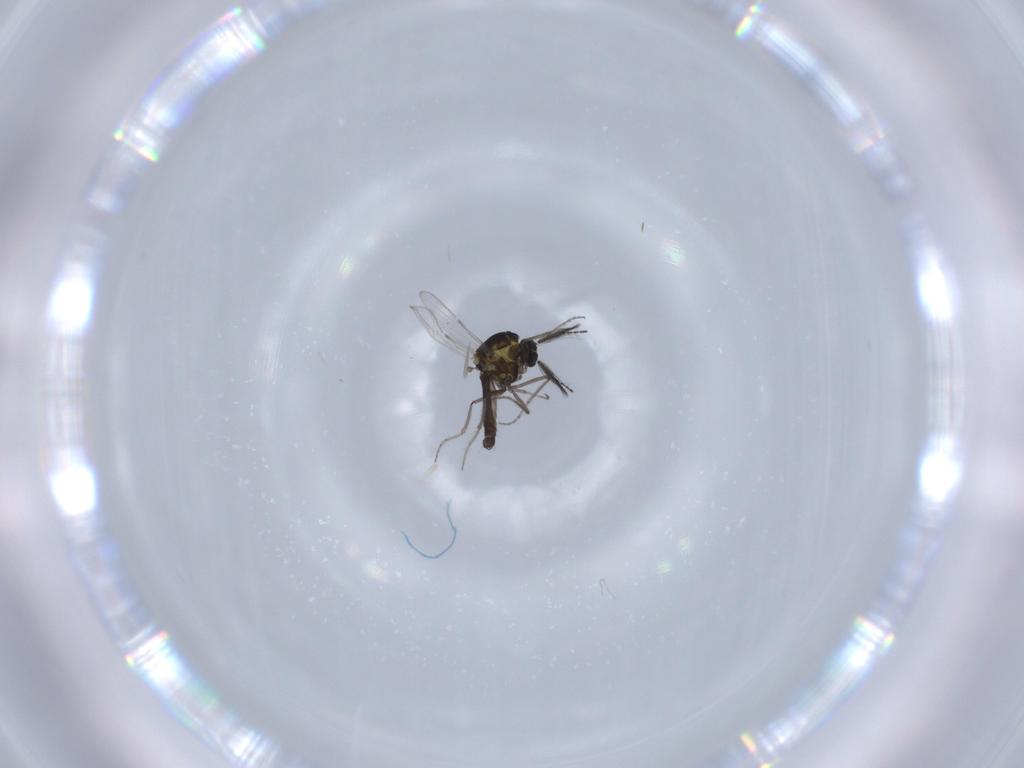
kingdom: Animalia
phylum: Arthropoda
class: Insecta
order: Diptera
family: Ceratopogonidae
